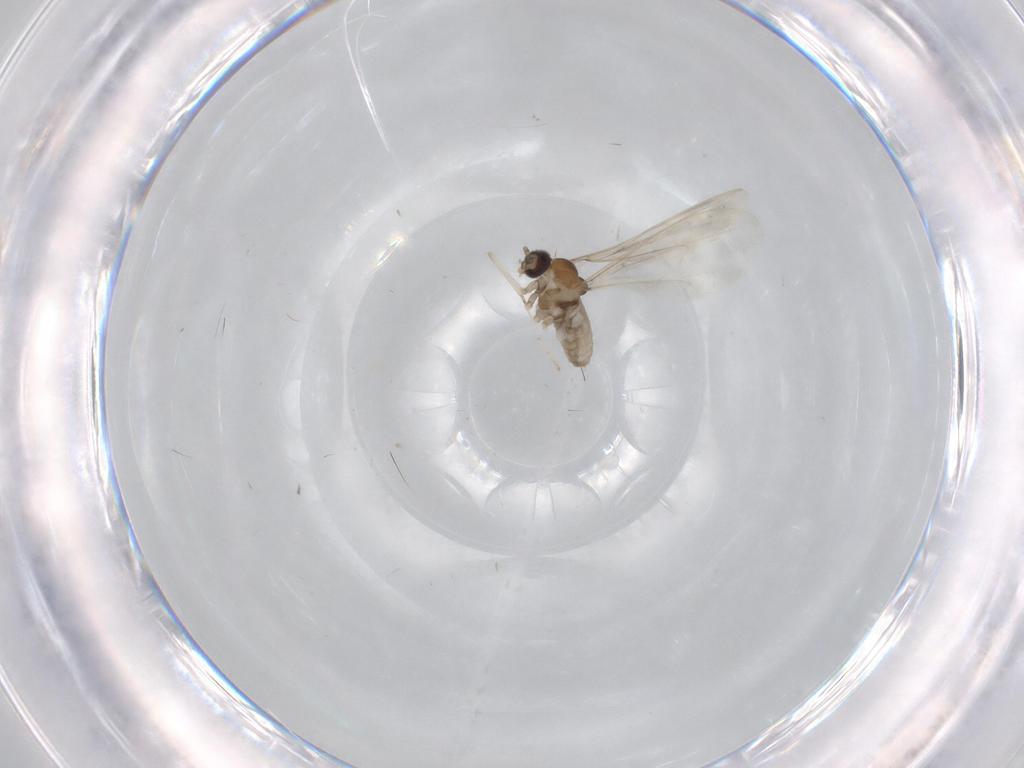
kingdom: Animalia
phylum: Arthropoda
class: Insecta
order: Diptera
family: Cecidomyiidae
